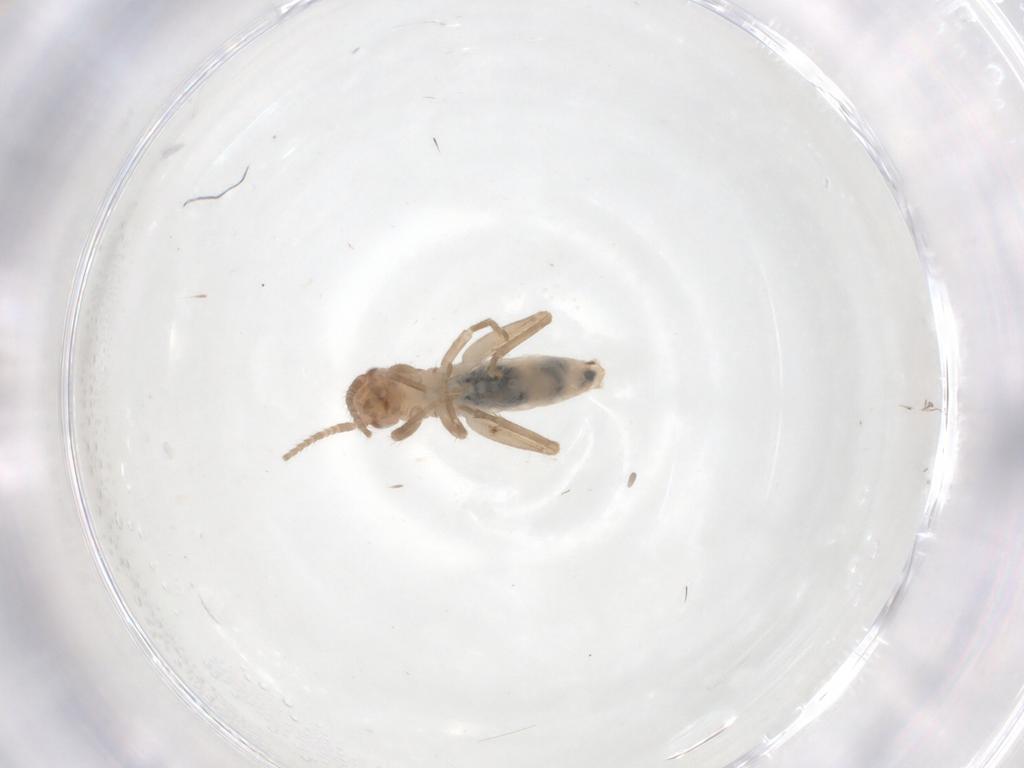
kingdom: Animalia
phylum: Arthropoda
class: Insecta
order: Orthoptera
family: Gryllidae
